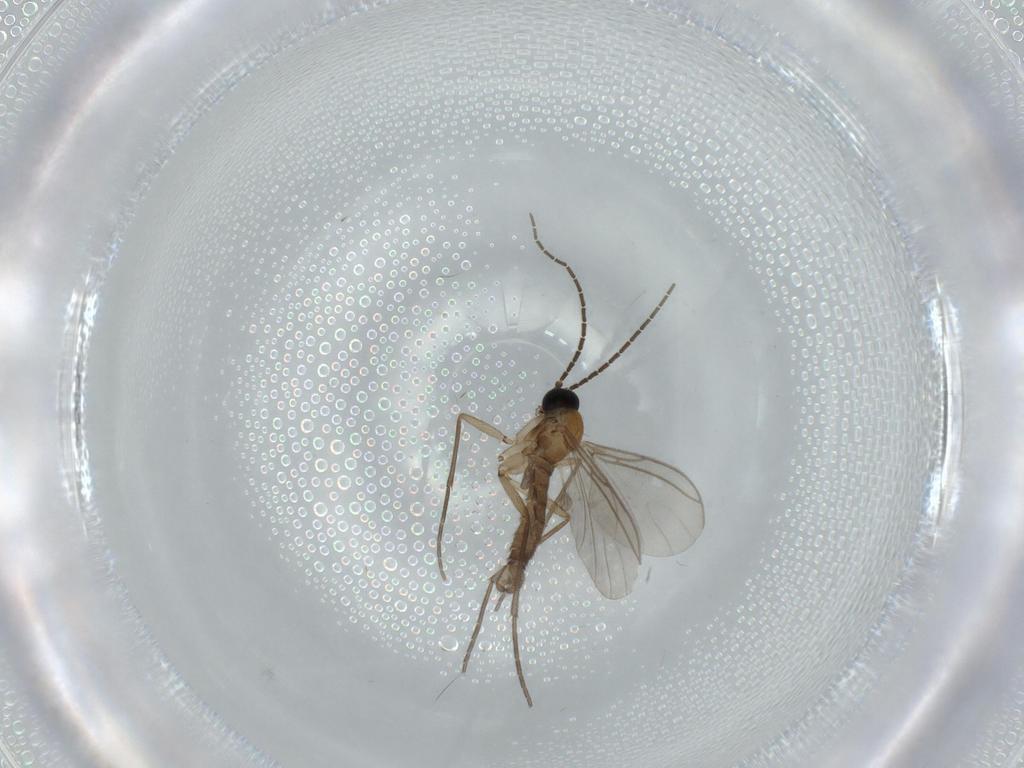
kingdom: Animalia
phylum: Arthropoda
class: Insecta
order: Diptera
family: Sciaridae
